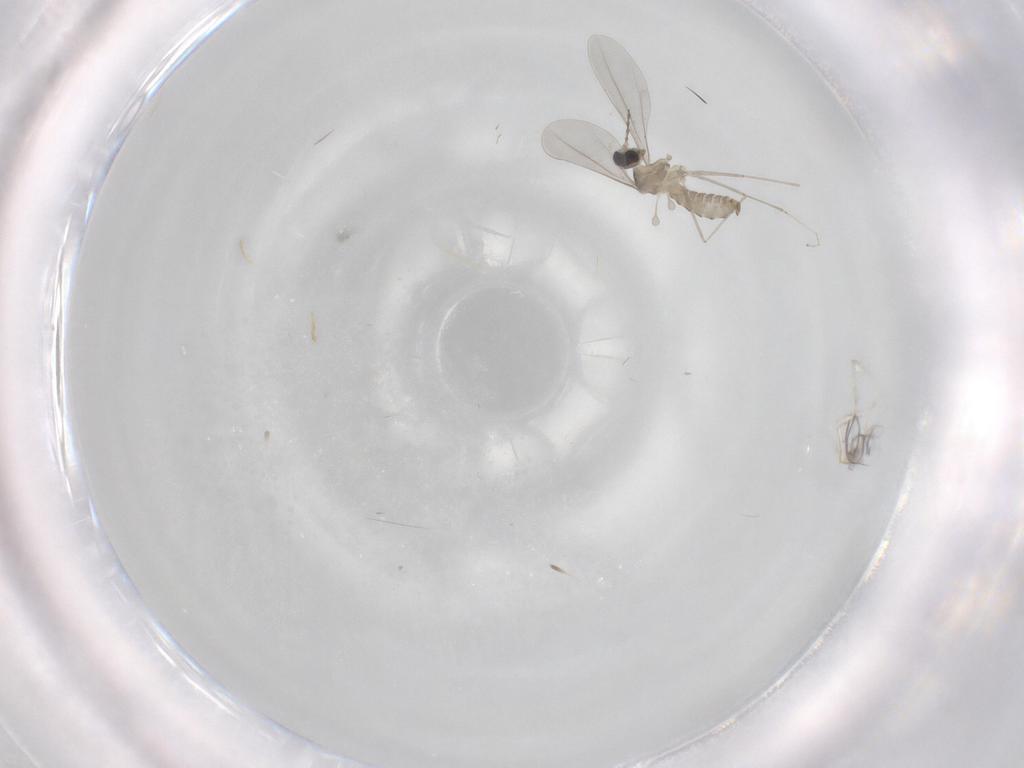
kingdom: Animalia
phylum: Arthropoda
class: Insecta
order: Diptera
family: Cecidomyiidae
